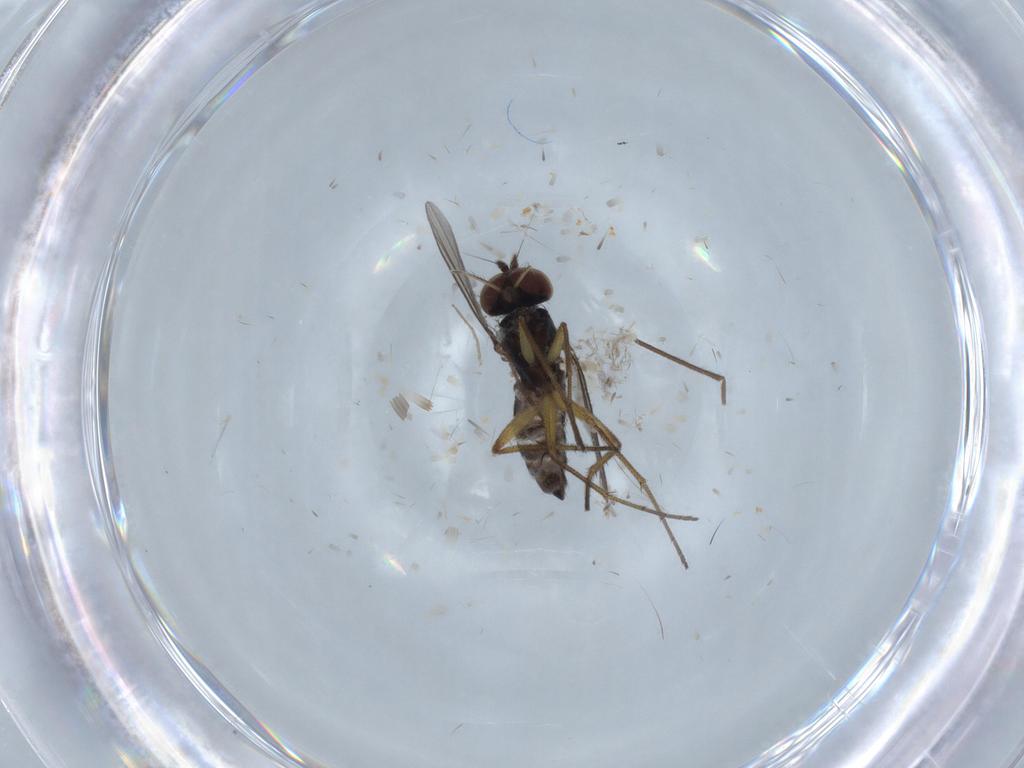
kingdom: Animalia
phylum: Arthropoda
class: Insecta
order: Diptera
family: Dolichopodidae
